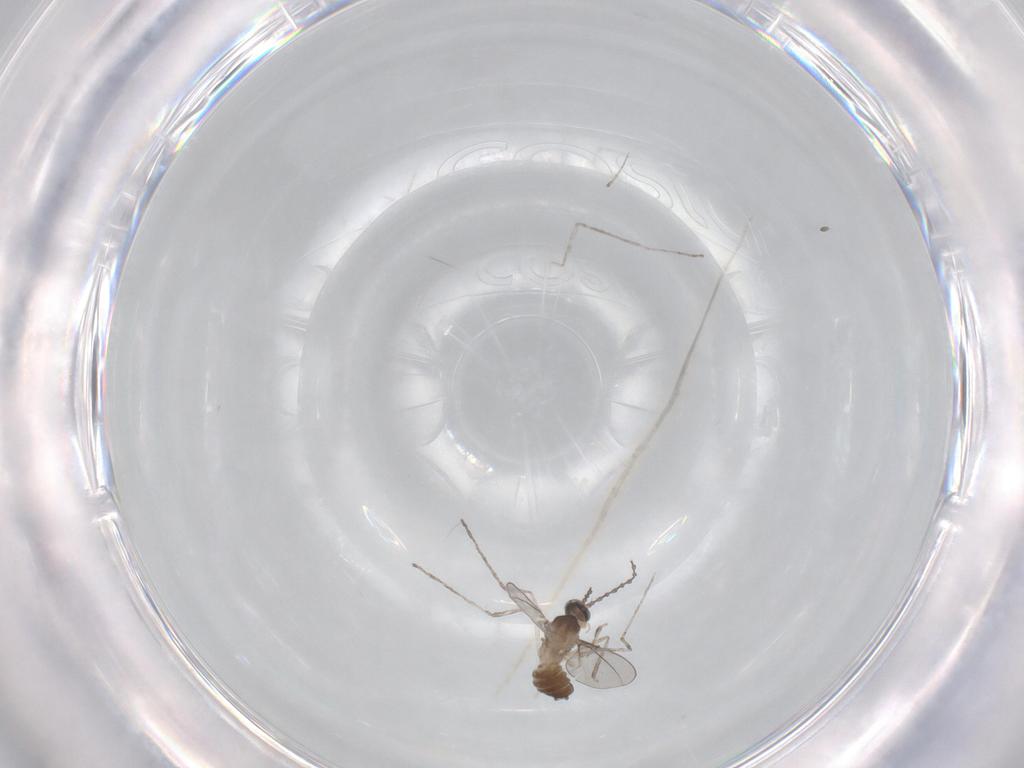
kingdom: Animalia
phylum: Arthropoda
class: Insecta
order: Diptera
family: Cecidomyiidae
